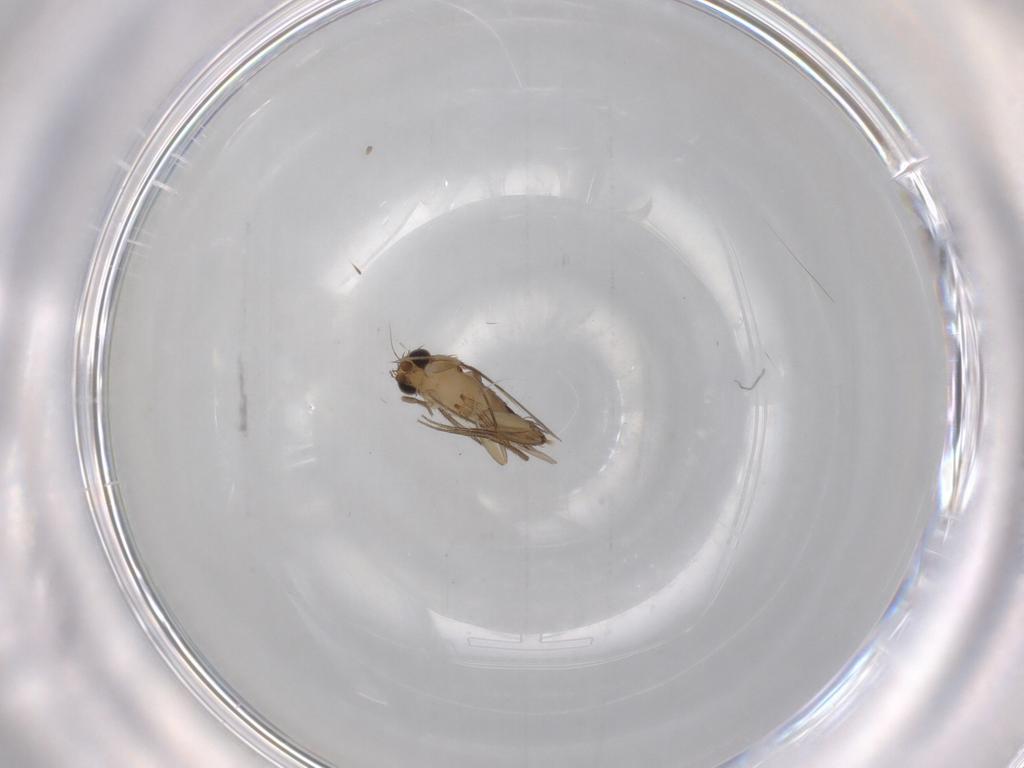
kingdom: Animalia
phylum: Arthropoda
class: Insecta
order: Diptera
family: Phoridae
